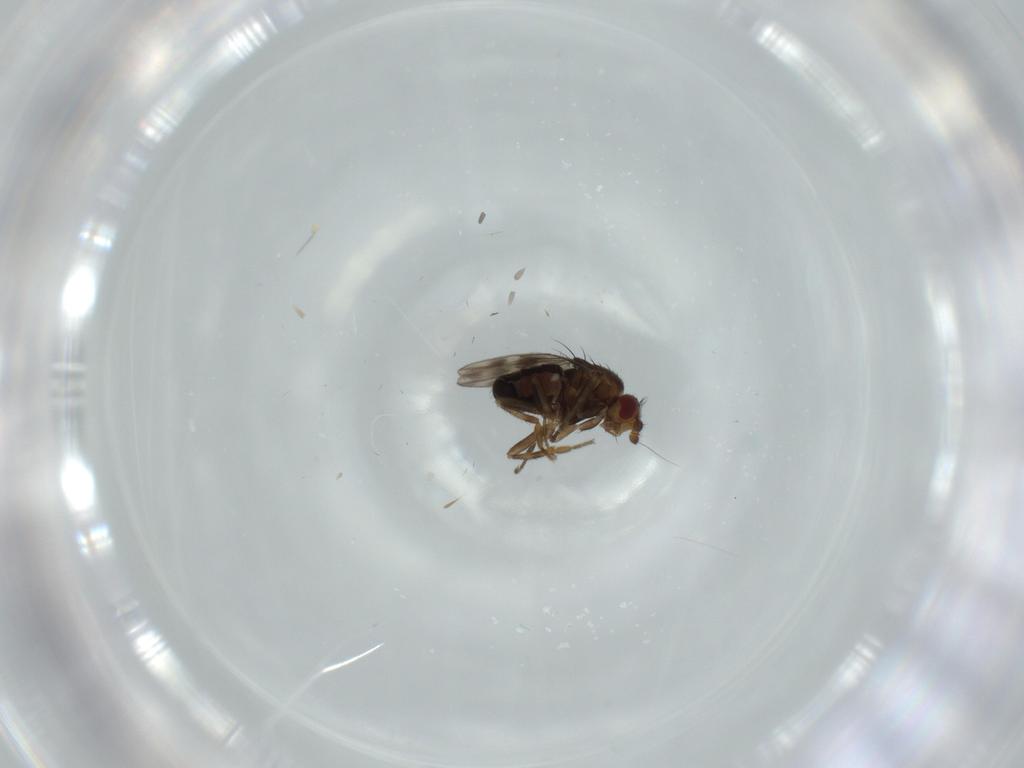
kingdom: Animalia
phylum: Arthropoda
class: Insecta
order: Diptera
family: Sphaeroceridae
